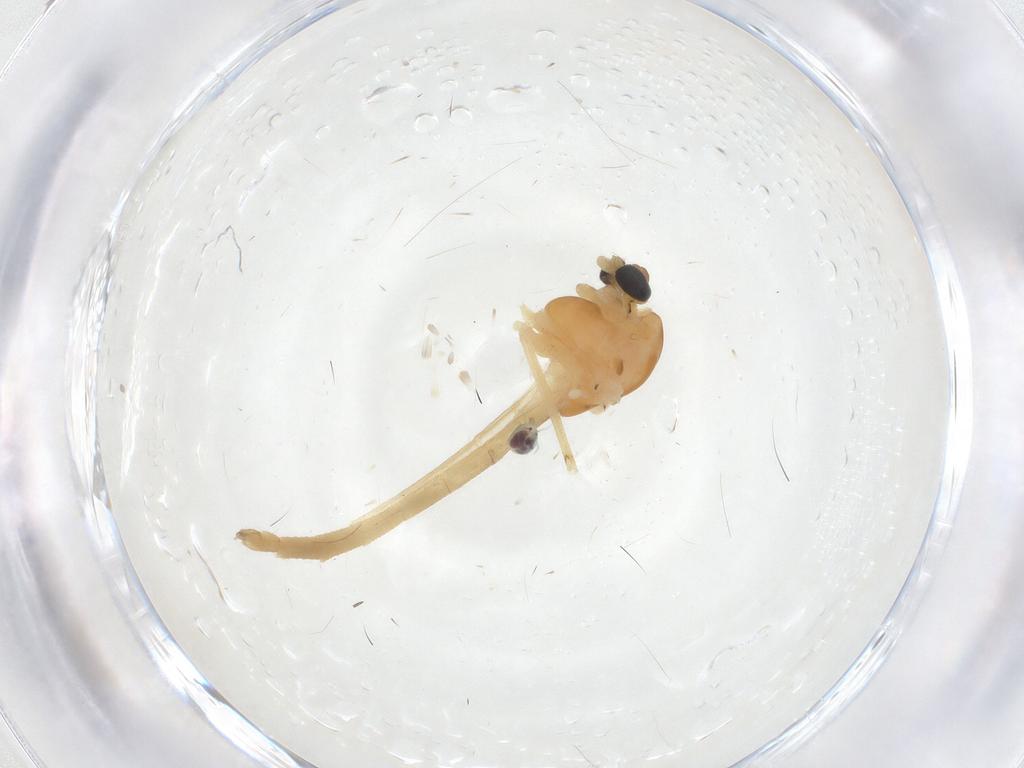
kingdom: Animalia
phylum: Arthropoda
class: Insecta
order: Diptera
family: Chironomidae
